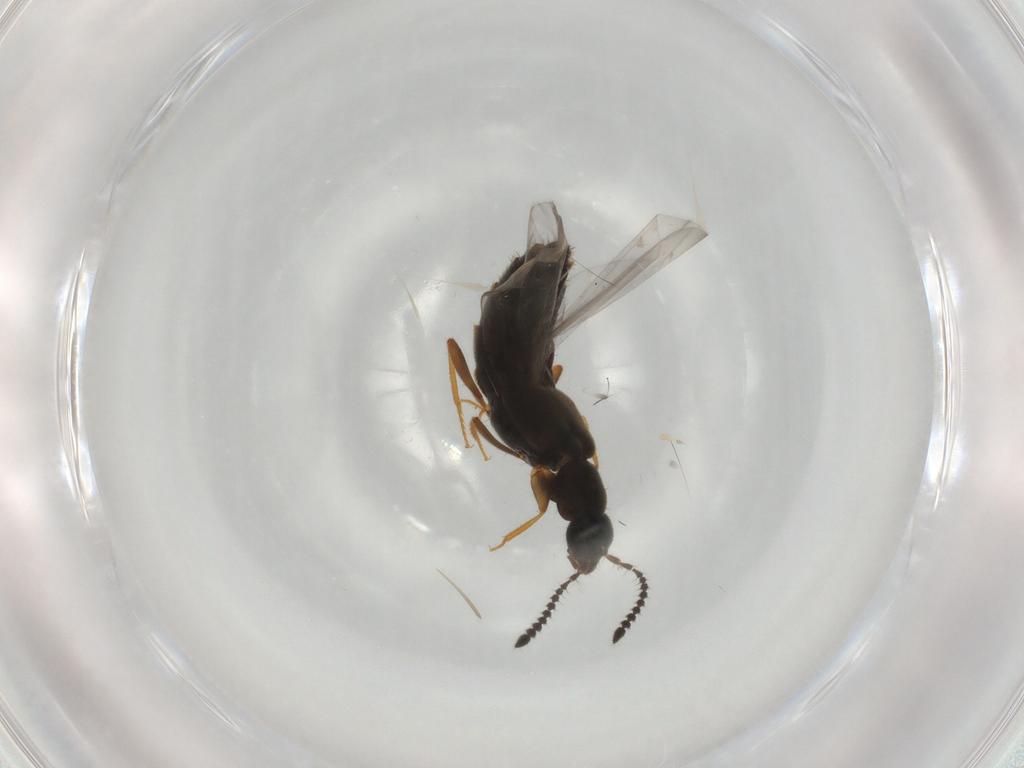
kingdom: Animalia
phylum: Arthropoda
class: Insecta
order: Coleoptera
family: Staphylinidae
